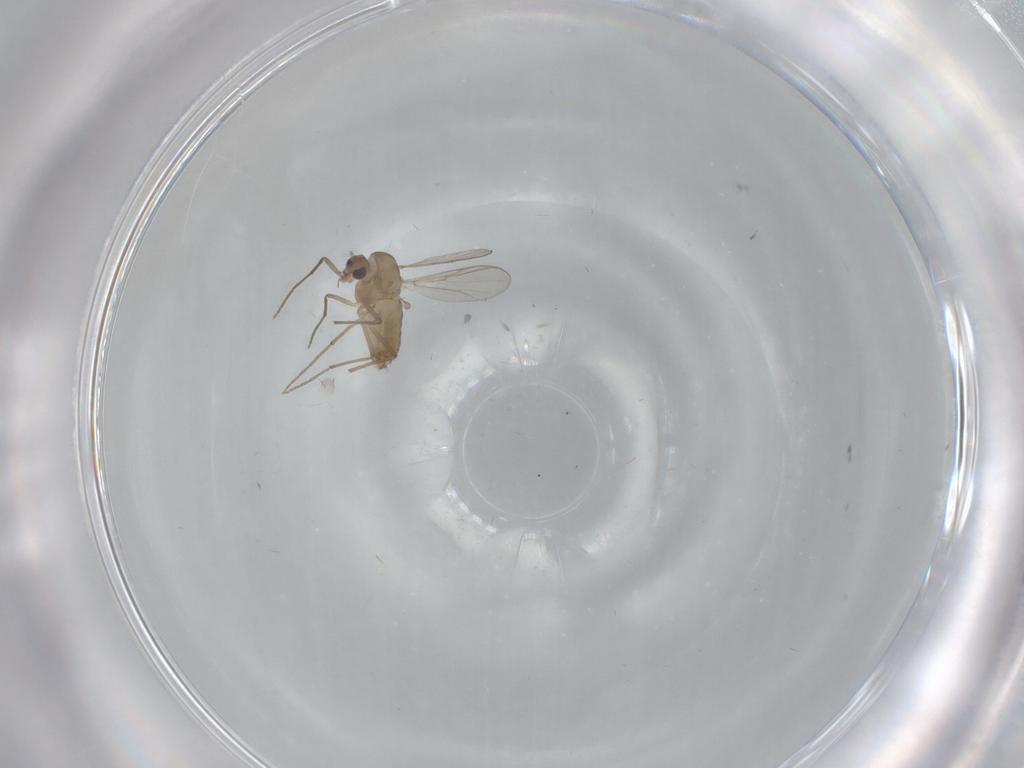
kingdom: Animalia
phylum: Arthropoda
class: Insecta
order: Diptera
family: Chironomidae
